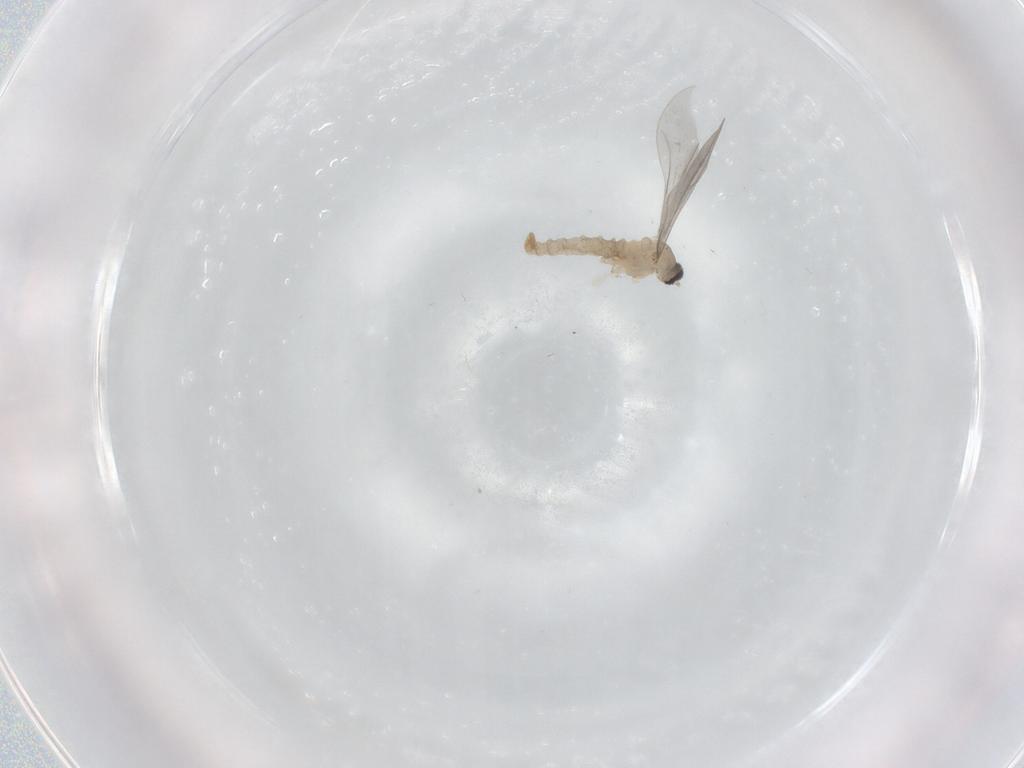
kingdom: Animalia
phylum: Arthropoda
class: Insecta
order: Diptera
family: Cecidomyiidae
